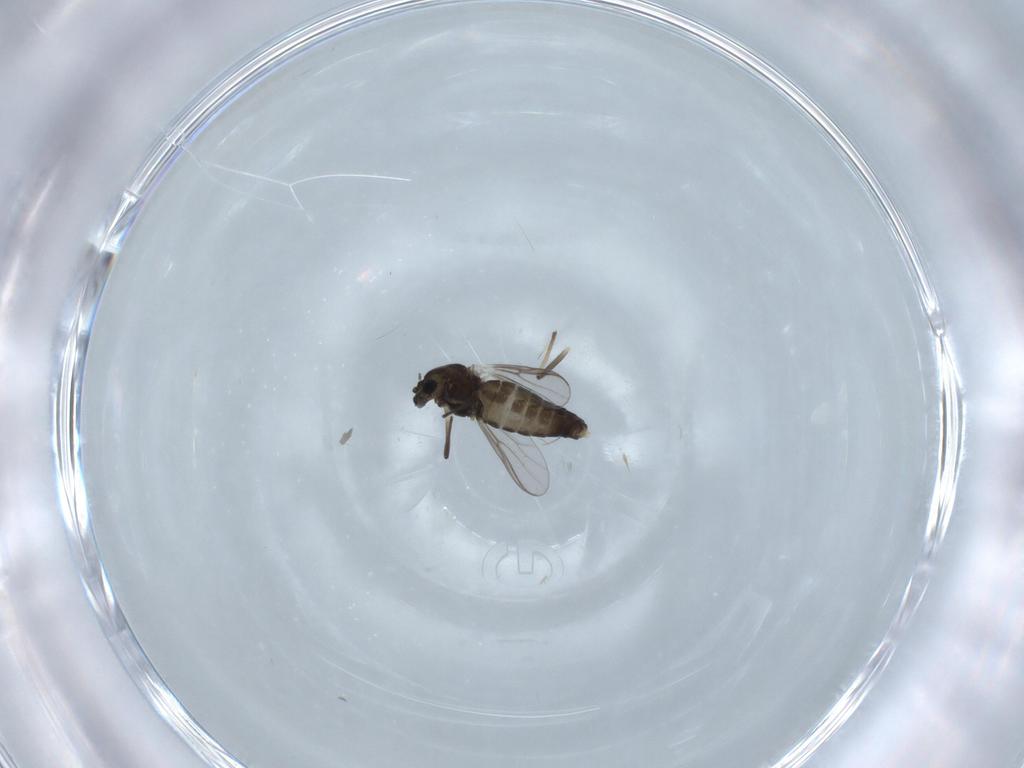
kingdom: Animalia
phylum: Arthropoda
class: Insecta
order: Diptera
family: Chironomidae
